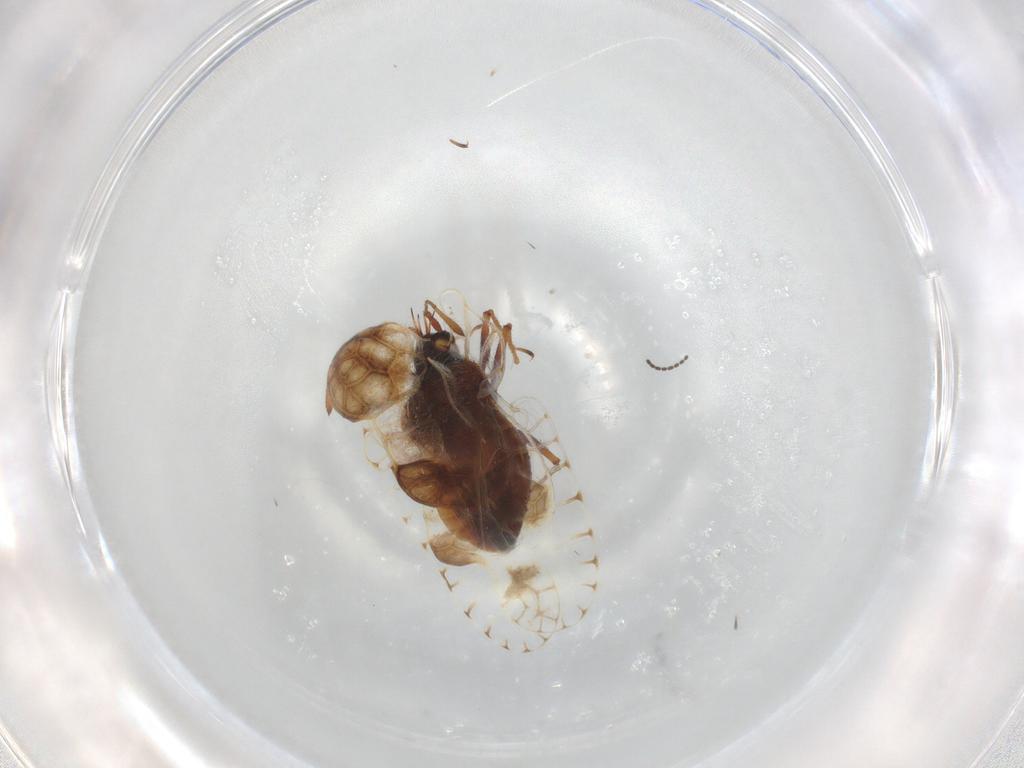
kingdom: Animalia
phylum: Arthropoda
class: Insecta
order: Hemiptera
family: Tingidae
